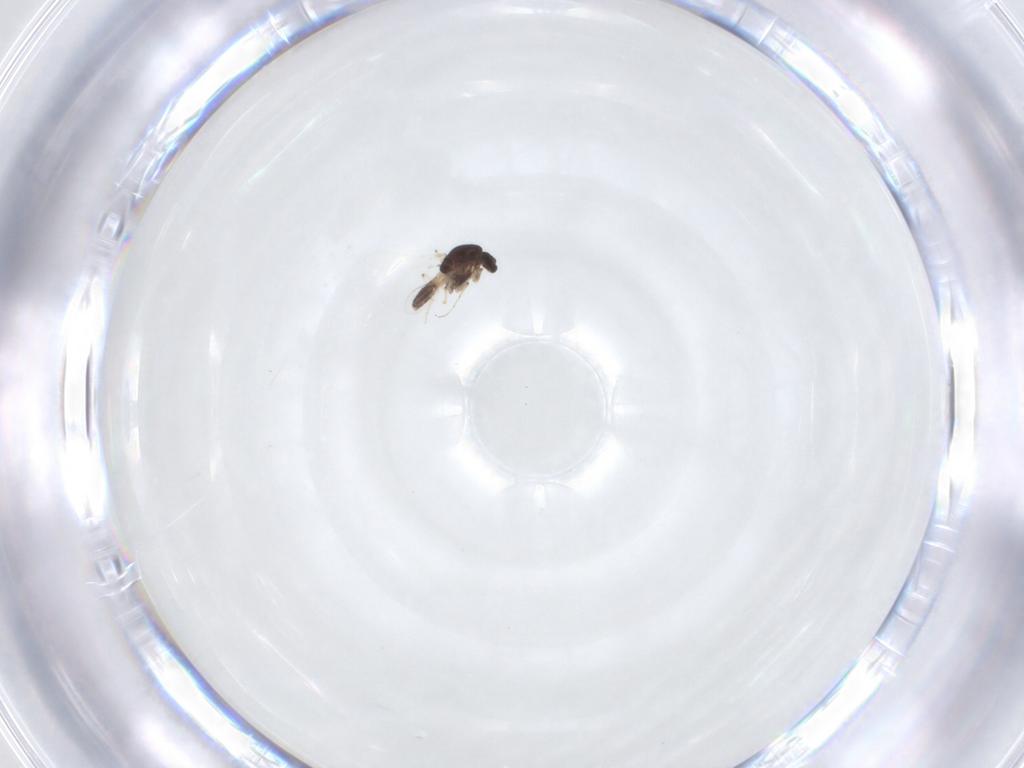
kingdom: Animalia
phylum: Arthropoda
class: Insecta
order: Diptera
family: Chironomidae
